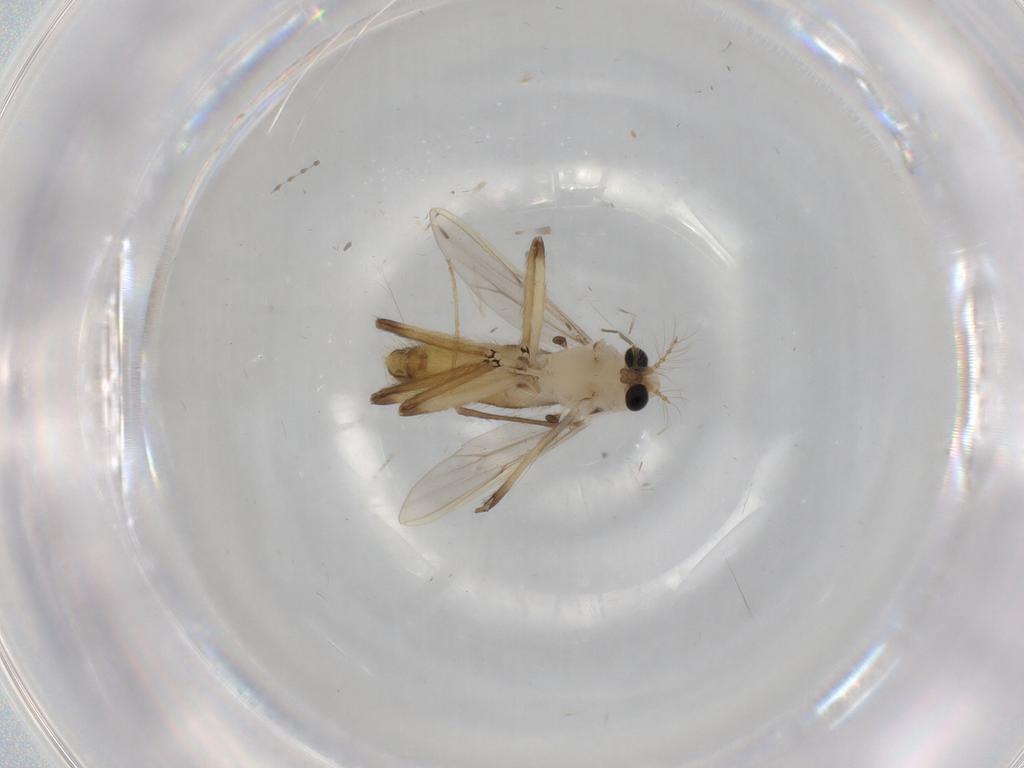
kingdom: Animalia
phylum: Arthropoda
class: Insecta
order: Diptera
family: Chironomidae
